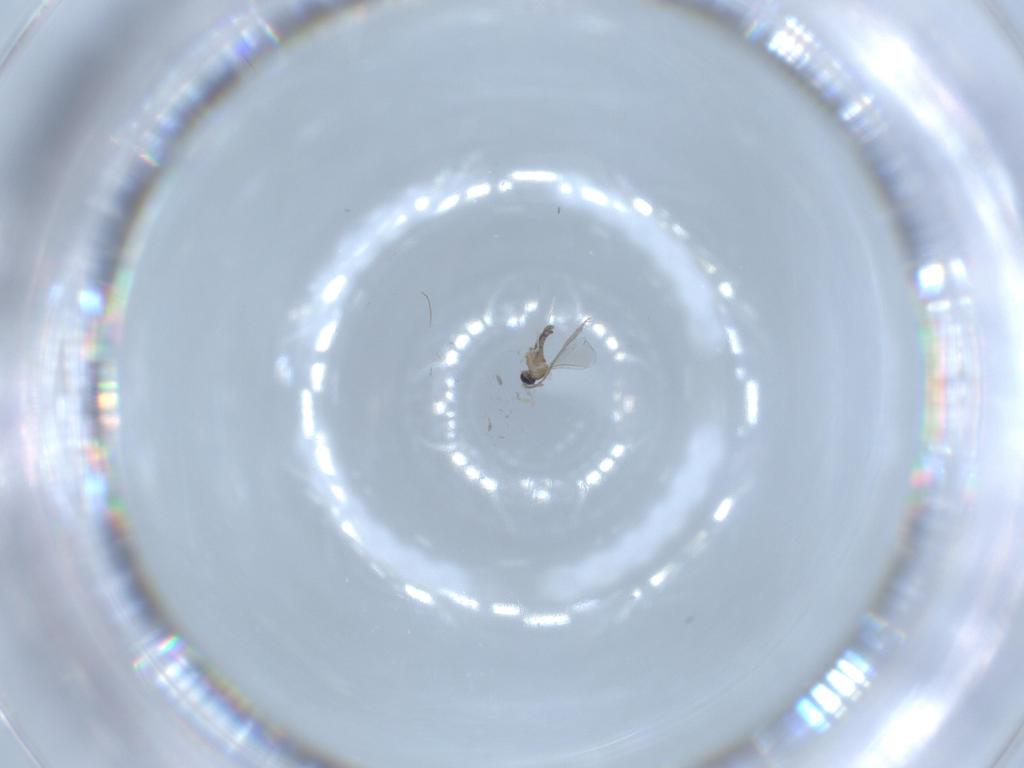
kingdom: Animalia
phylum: Arthropoda
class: Insecta
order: Diptera
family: Cecidomyiidae
